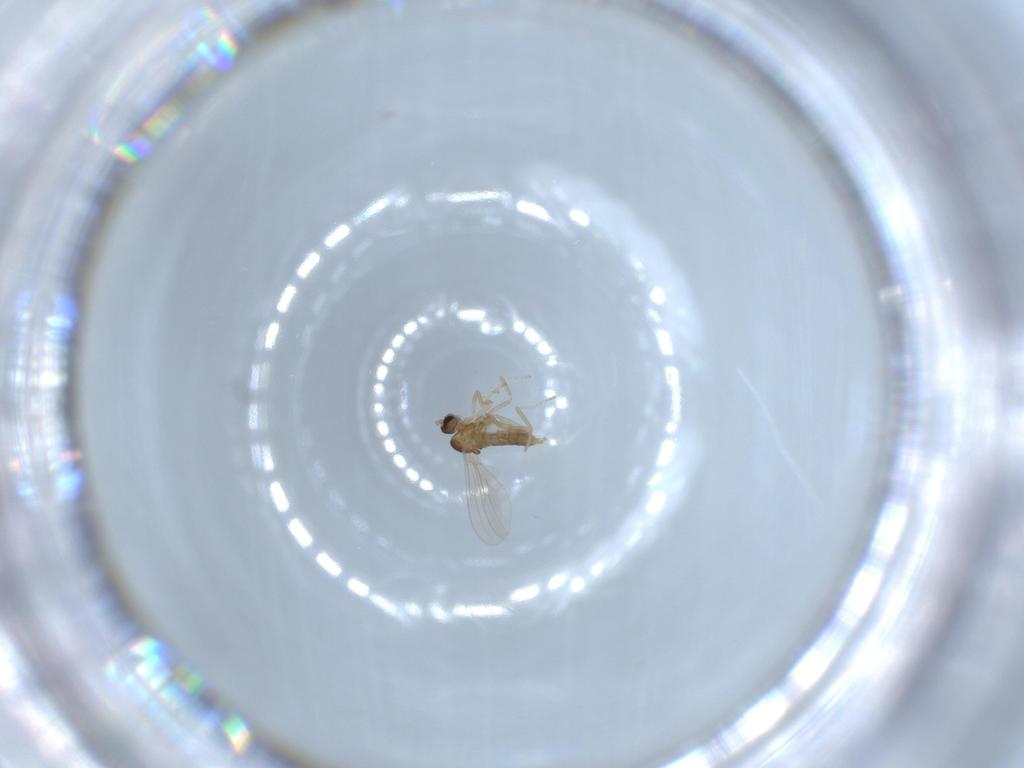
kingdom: Animalia
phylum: Arthropoda
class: Insecta
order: Diptera
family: Cecidomyiidae
